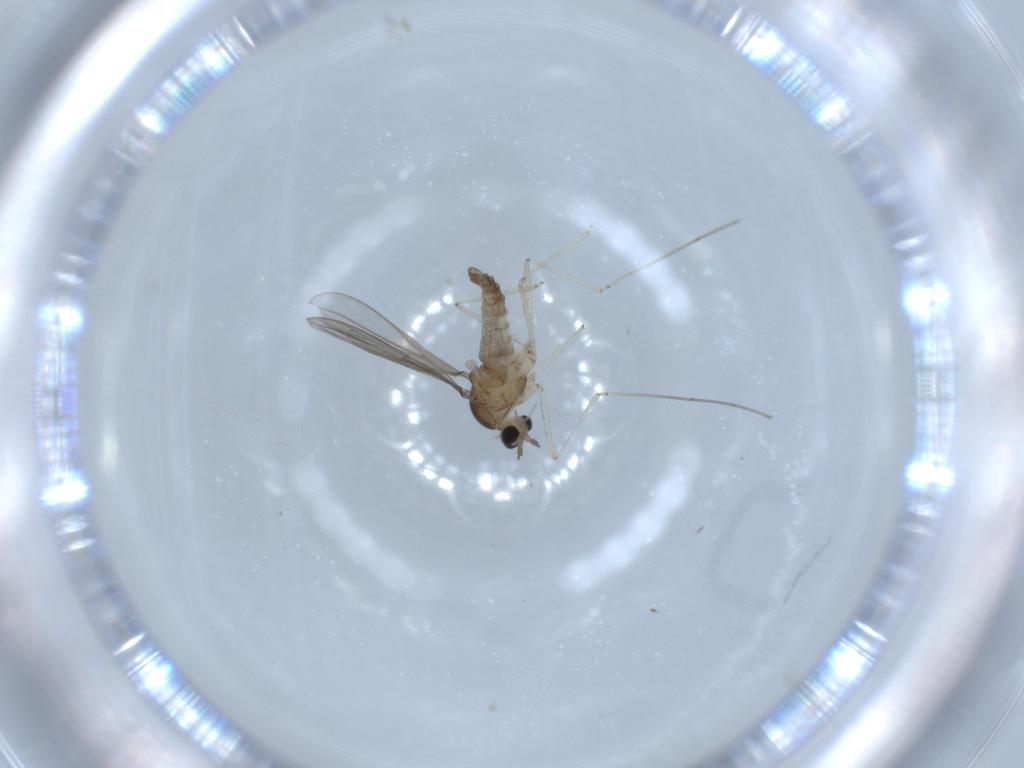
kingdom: Animalia
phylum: Arthropoda
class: Insecta
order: Diptera
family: Cecidomyiidae
